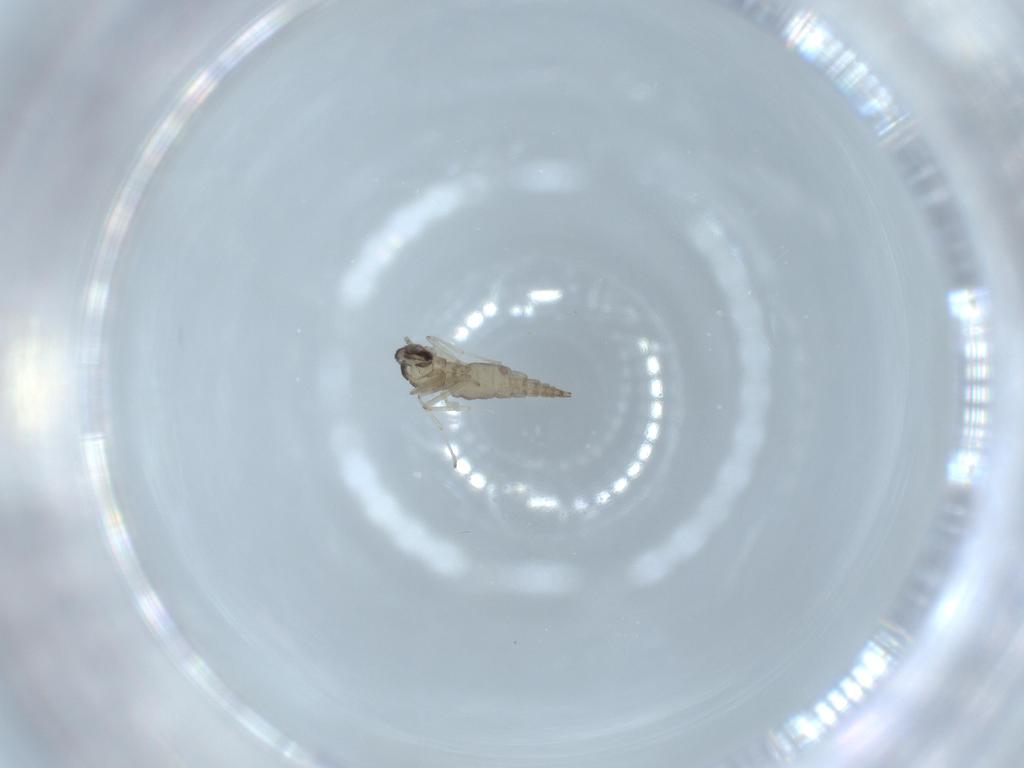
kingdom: Animalia
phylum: Arthropoda
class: Insecta
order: Diptera
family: Cecidomyiidae
